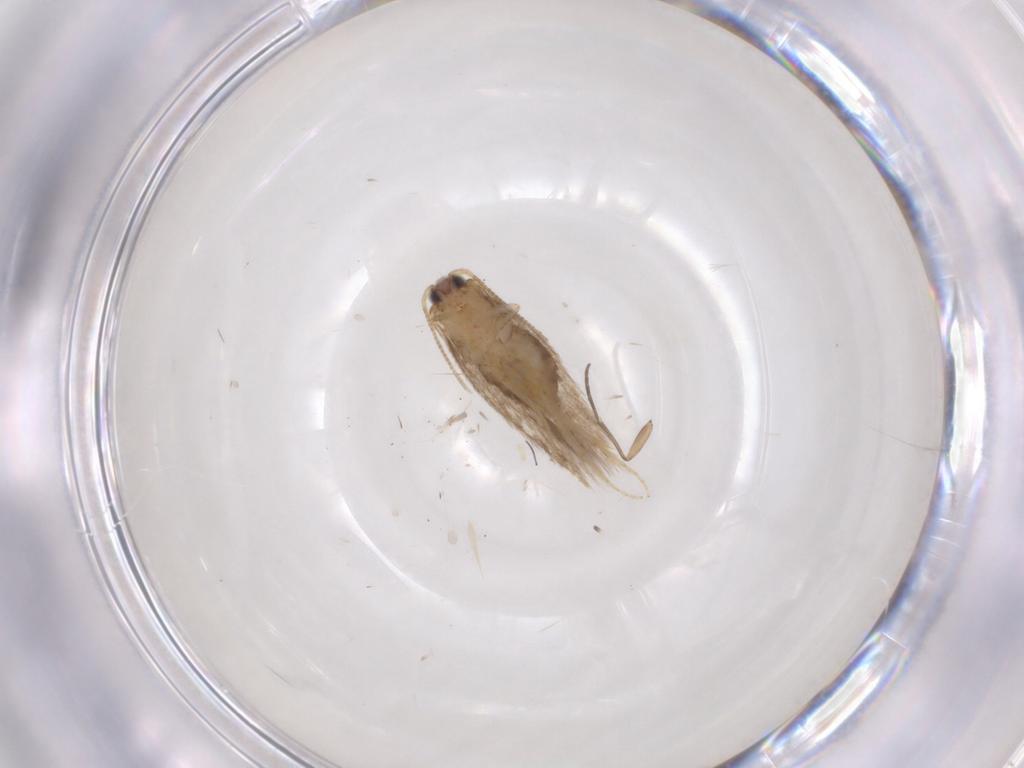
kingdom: Animalia
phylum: Arthropoda
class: Insecta
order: Lepidoptera
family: Nepticulidae
